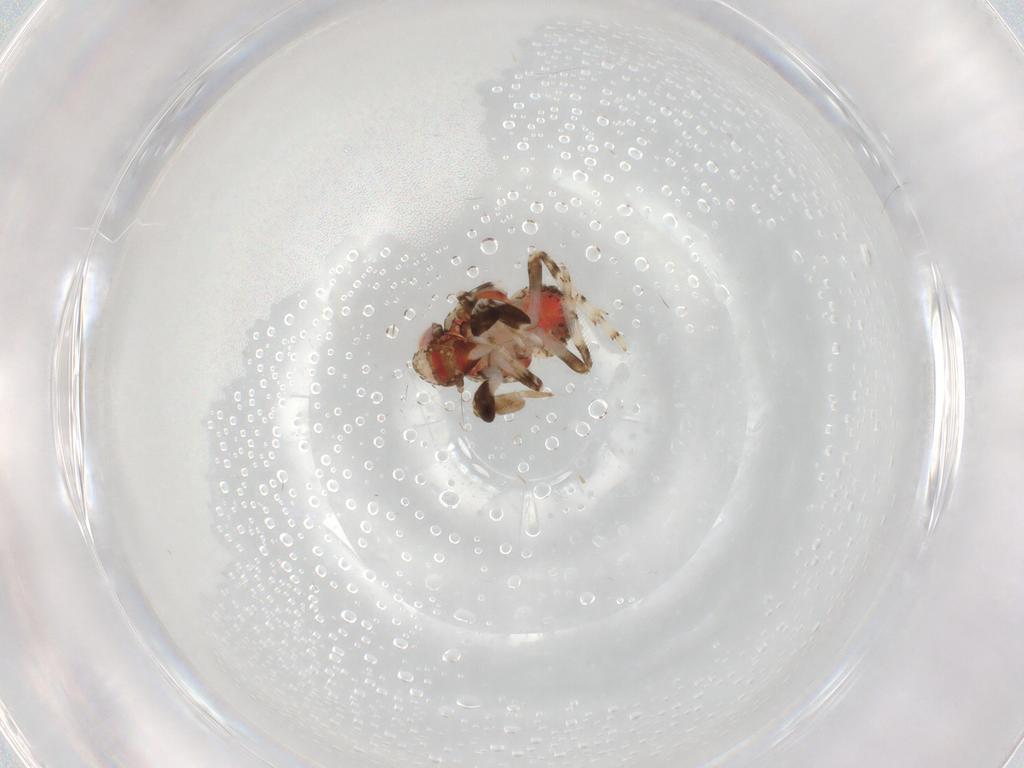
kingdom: Animalia
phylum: Arthropoda
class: Insecta
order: Hemiptera
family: Issidae
